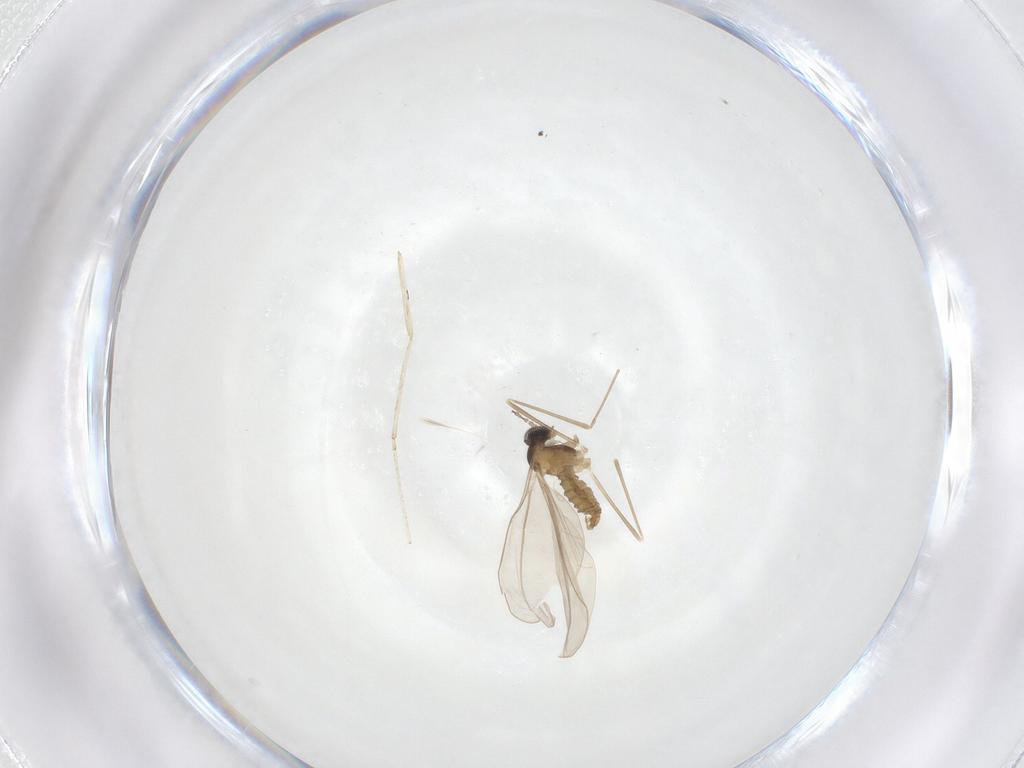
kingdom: Animalia
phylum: Arthropoda
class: Insecta
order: Diptera
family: Cecidomyiidae
